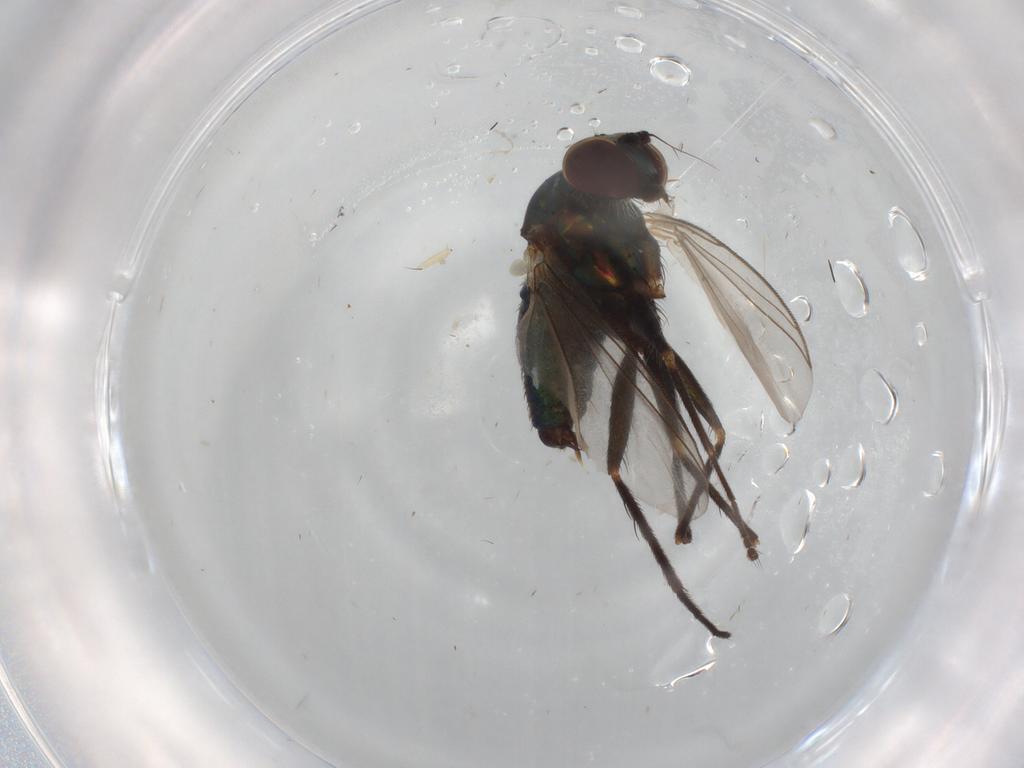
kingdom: Animalia
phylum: Arthropoda
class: Insecta
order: Diptera
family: Dolichopodidae
